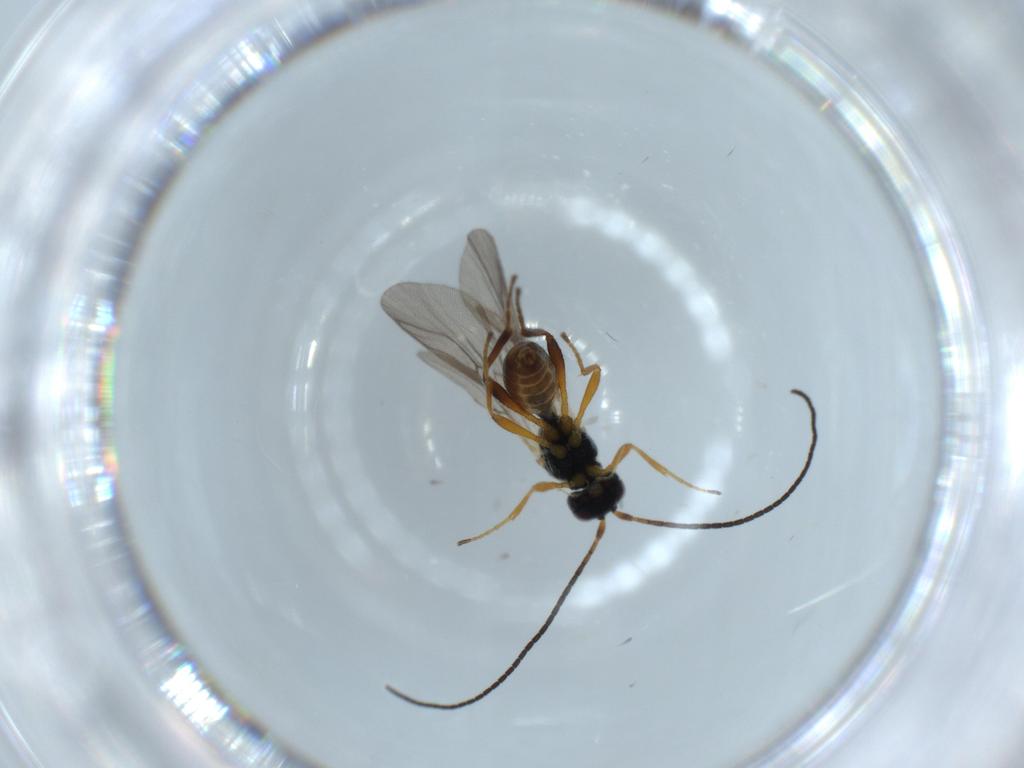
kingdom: Animalia
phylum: Arthropoda
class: Insecta
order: Hymenoptera
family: Braconidae
